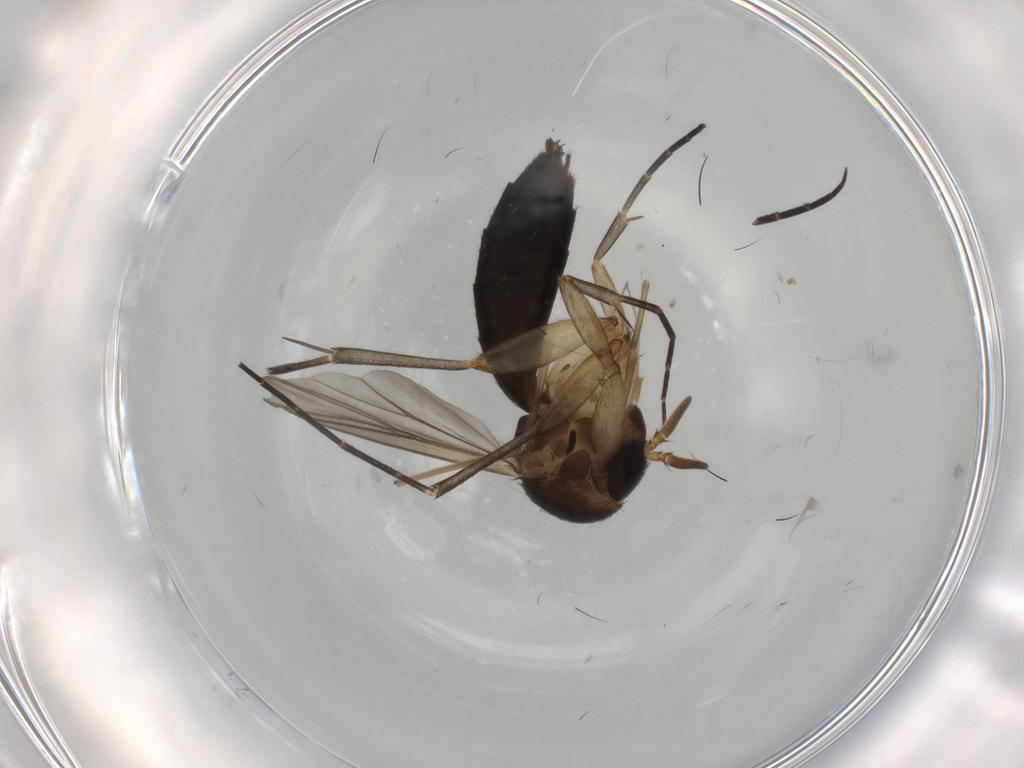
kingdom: Animalia
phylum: Arthropoda
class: Insecta
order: Diptera
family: Mycetophilidae
